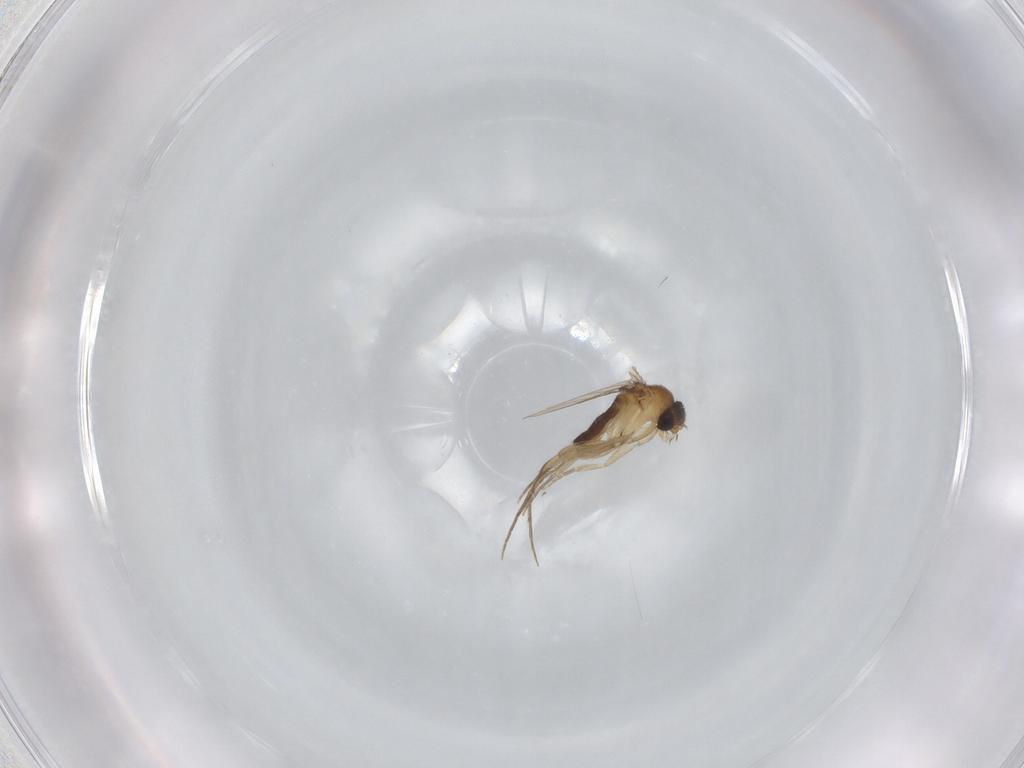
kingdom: Animalia
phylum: Arthropoda
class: Insecta
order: Diptera
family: Phoridae
